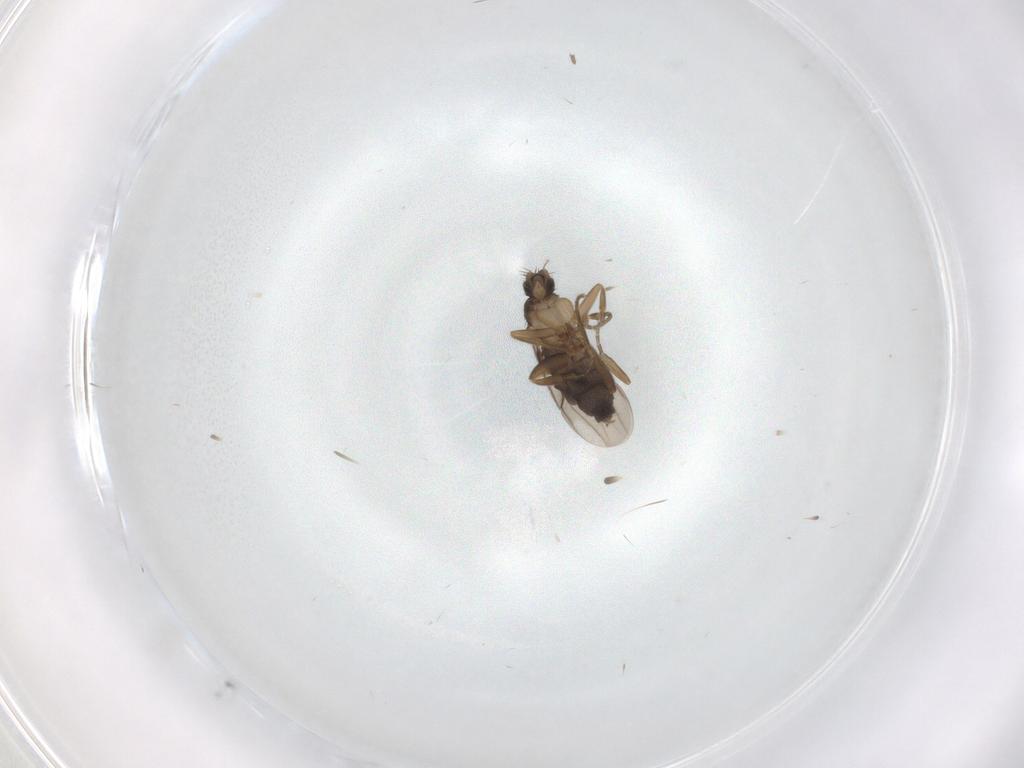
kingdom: Animalia
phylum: Arthropoda
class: Insecta
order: Diptera
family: Phoridae
